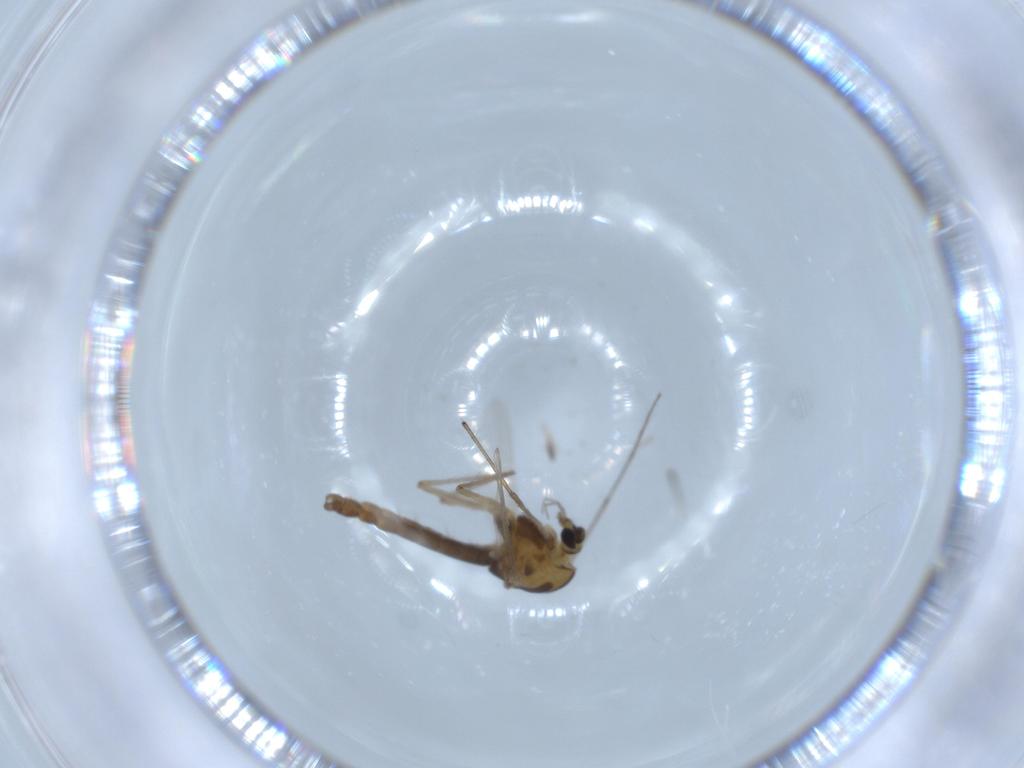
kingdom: Animalia
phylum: Arthropoda
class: Insecta
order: Diptera
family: Chironomidae
